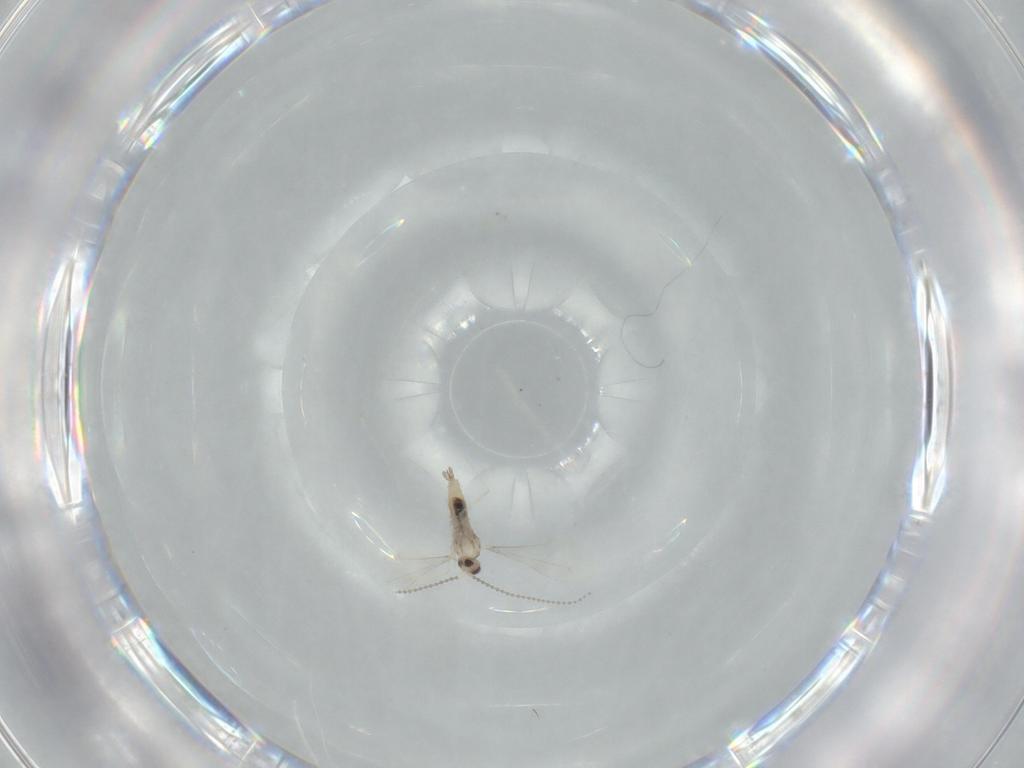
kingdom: Animalia
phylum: Arthropoda
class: Insecta
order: Diptera
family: Cecidomyiidae
